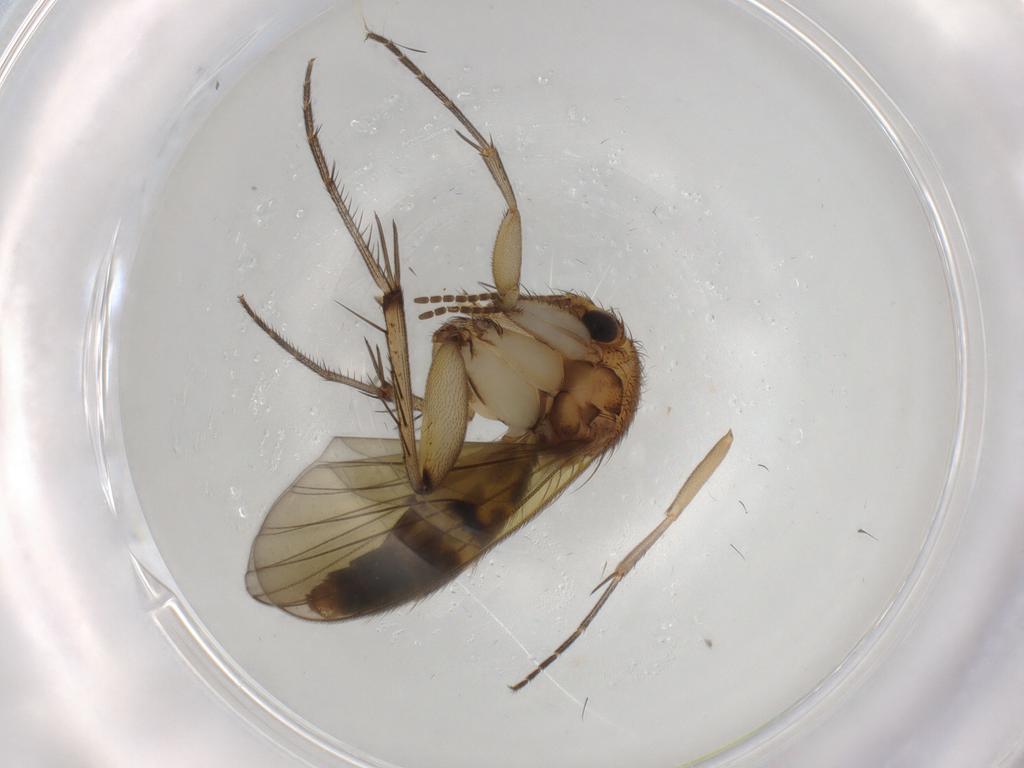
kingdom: Animalia
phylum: Arthropoda
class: Insecta
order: Diptera
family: Cecidomyiidae
